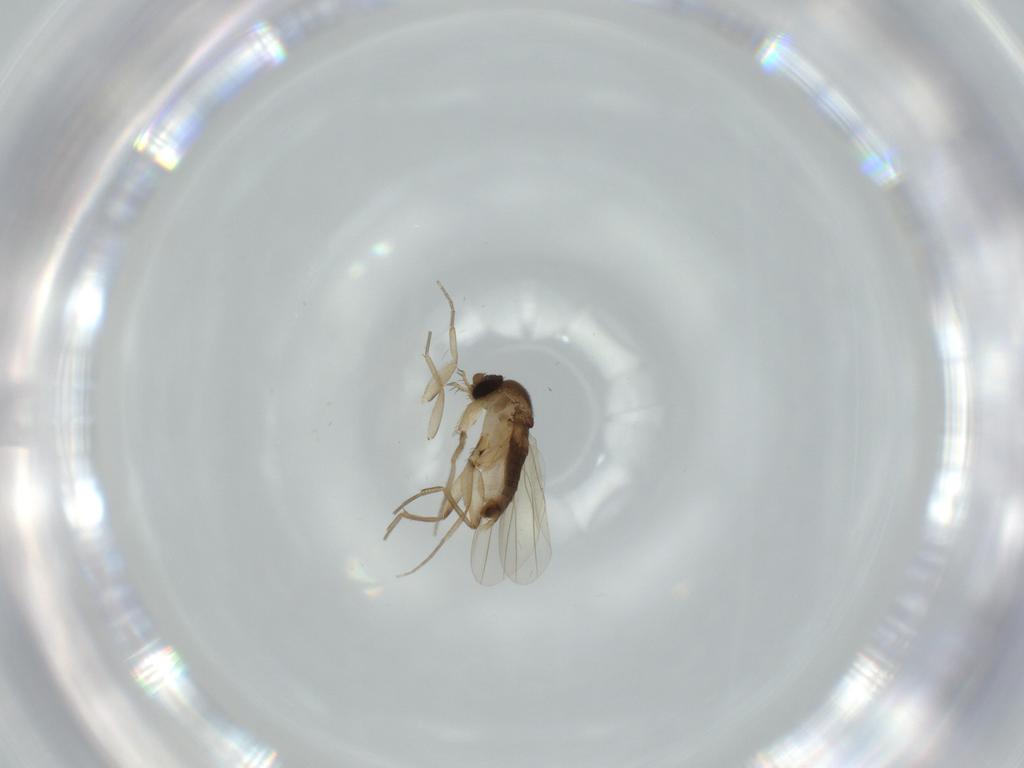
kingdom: Animalia
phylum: Arthropoda
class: Insecta
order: Diptera
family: Phoridae
